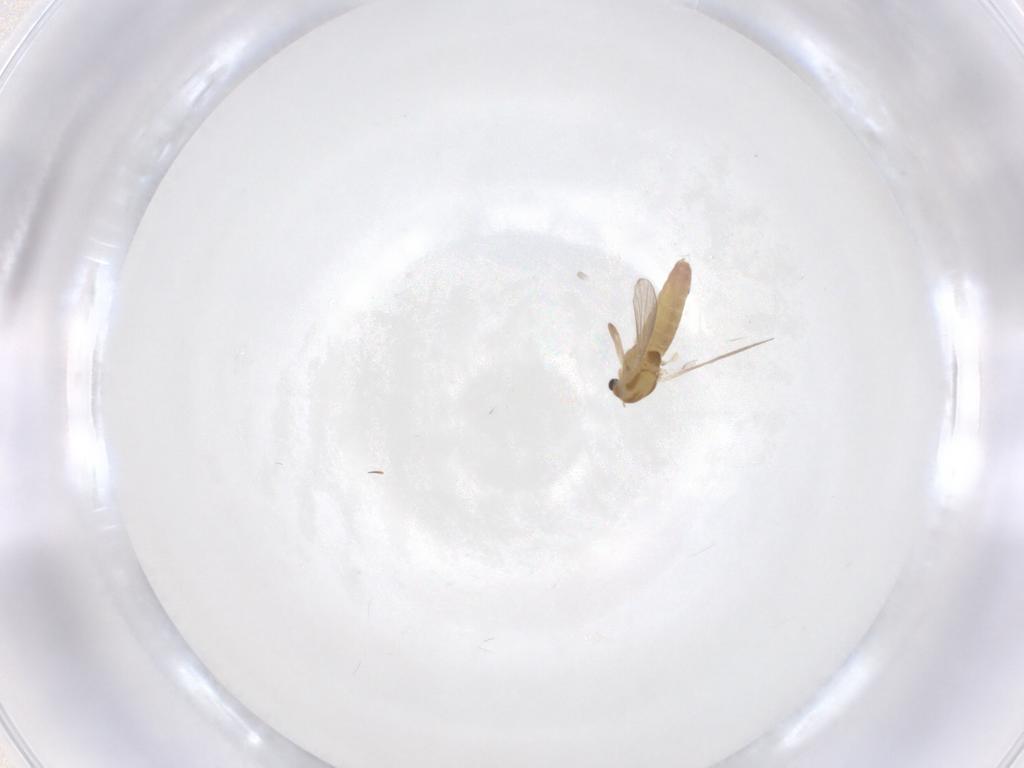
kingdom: Animalia
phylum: Arthropoda
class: Insecta
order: Diptera
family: Chironomidae
